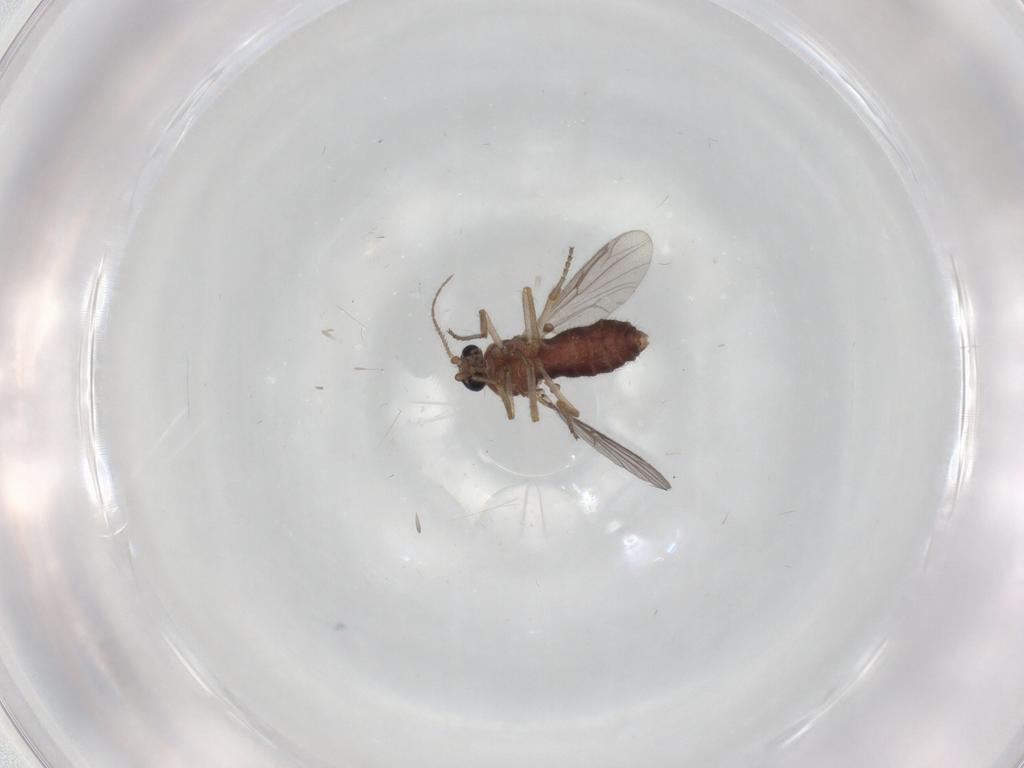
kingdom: Animalia
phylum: Arthropoda
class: Insecta
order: Diptera
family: Ceratopogonidae
